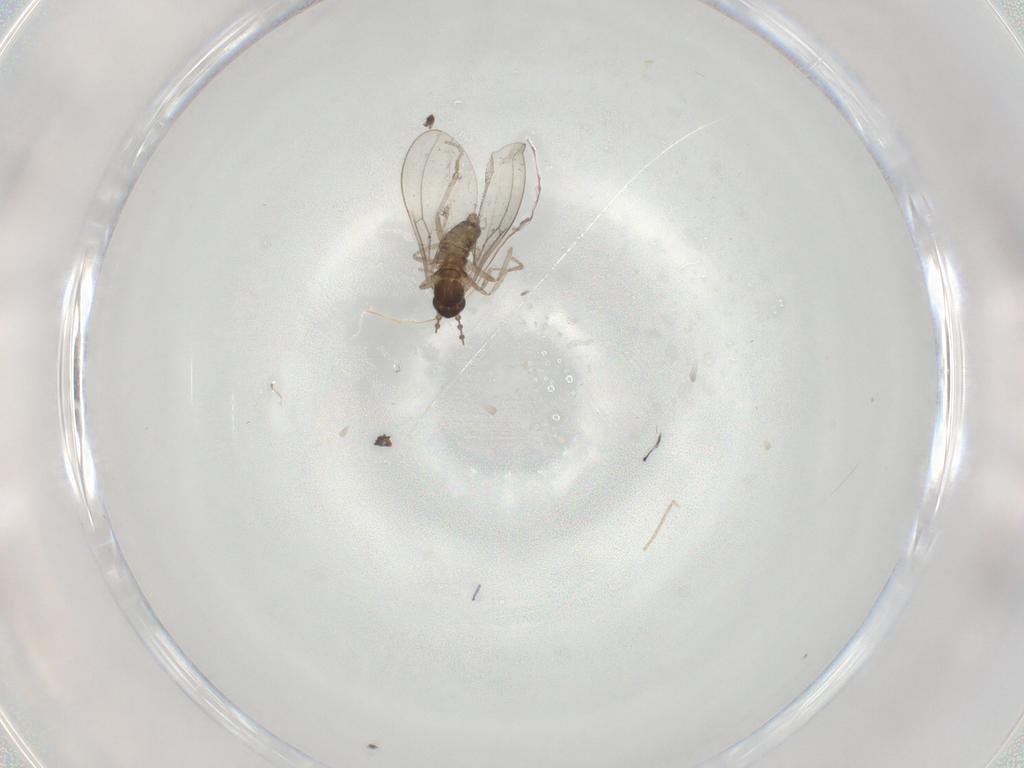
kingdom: Animalia
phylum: Arthropoda
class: Insecta
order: Diptera
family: Cecidomyiidae
